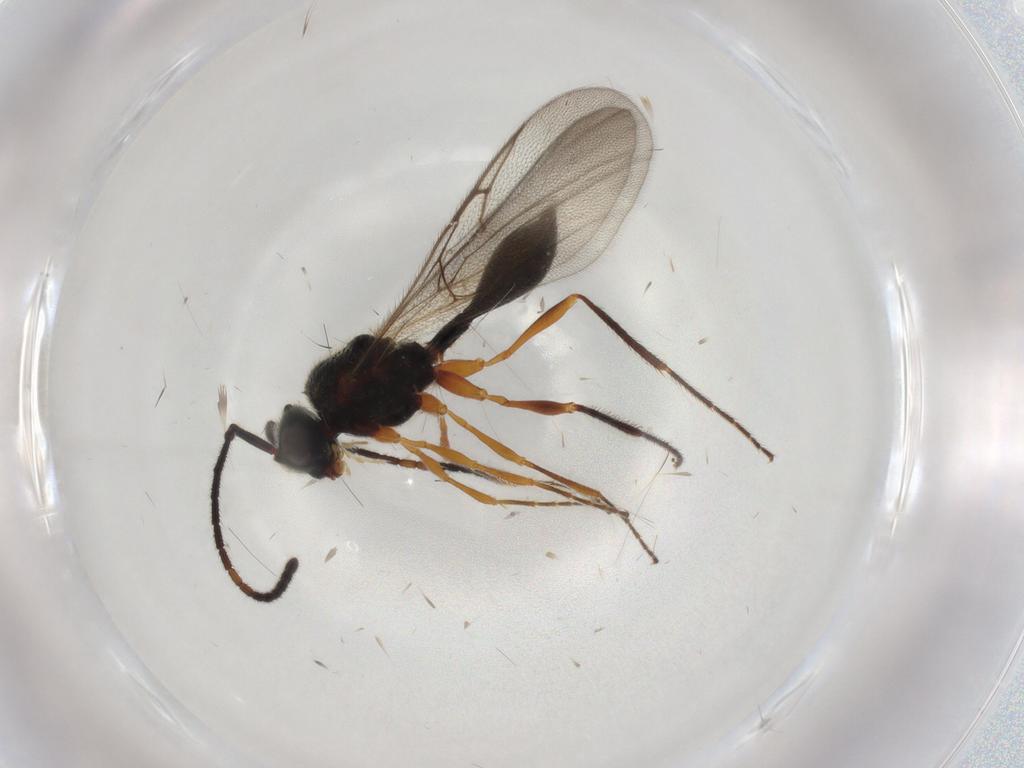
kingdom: Animalia
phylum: Arthropoda
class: Insecta
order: Hymenoptera
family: Diapriidae
